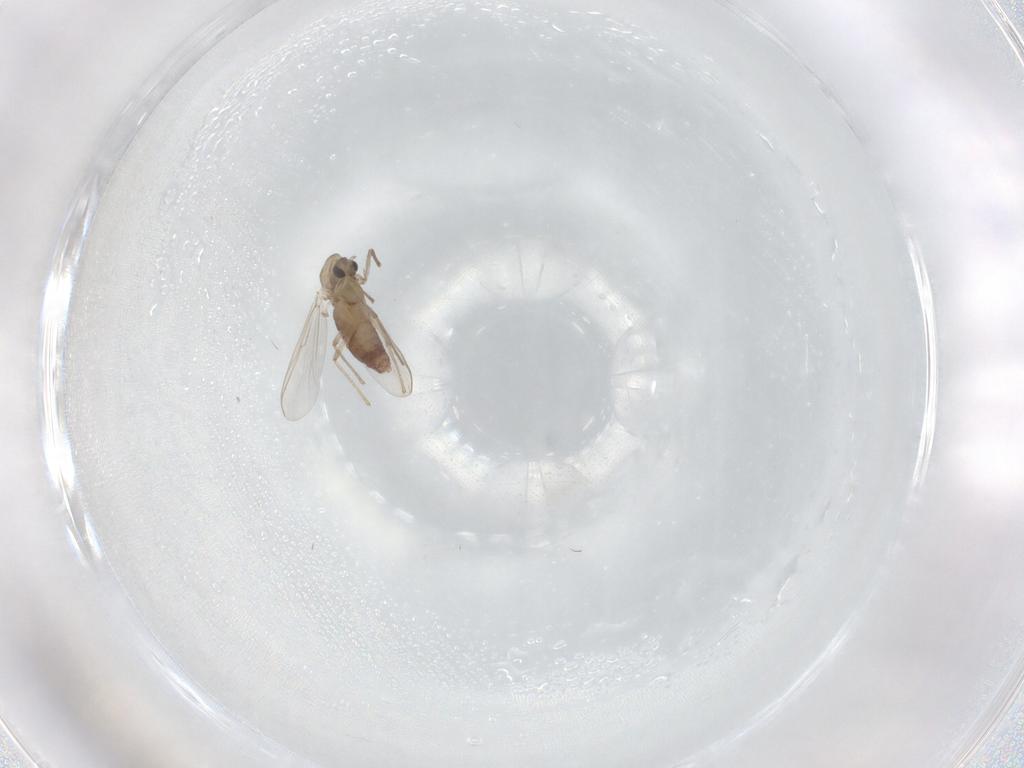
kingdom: Animalia
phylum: Arthropoda
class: Insecta
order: Diptera
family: Chironomidae
